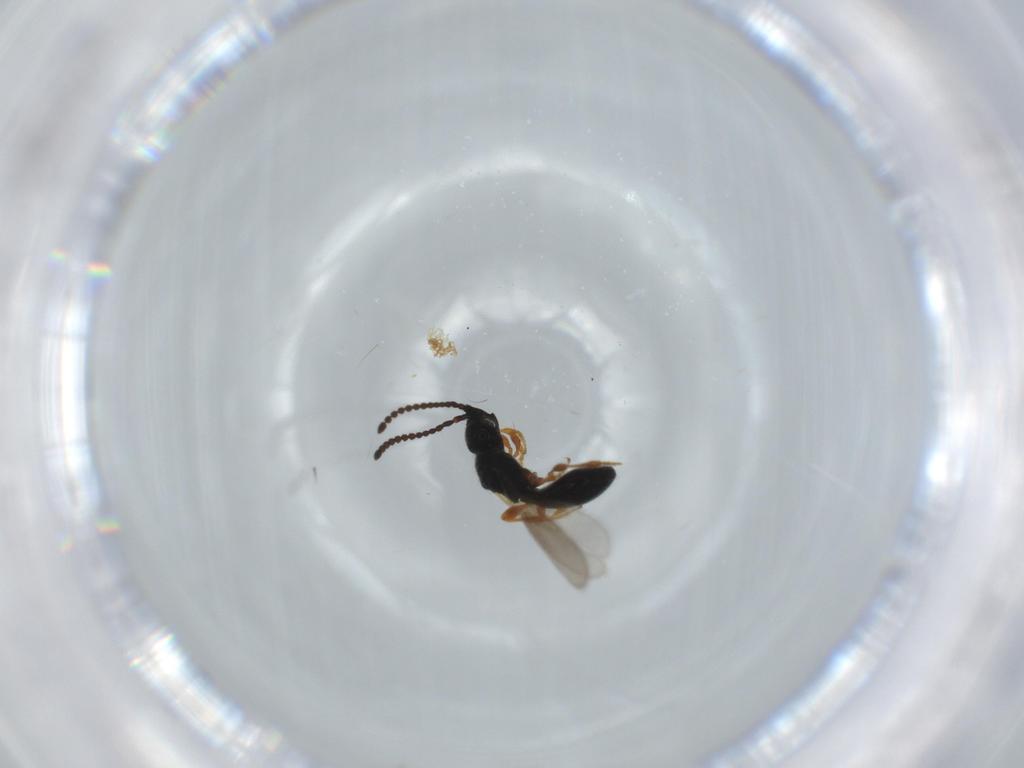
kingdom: Animalia
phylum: Arthropoda
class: Insecta
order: Hymenoptera
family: Diapriidae
